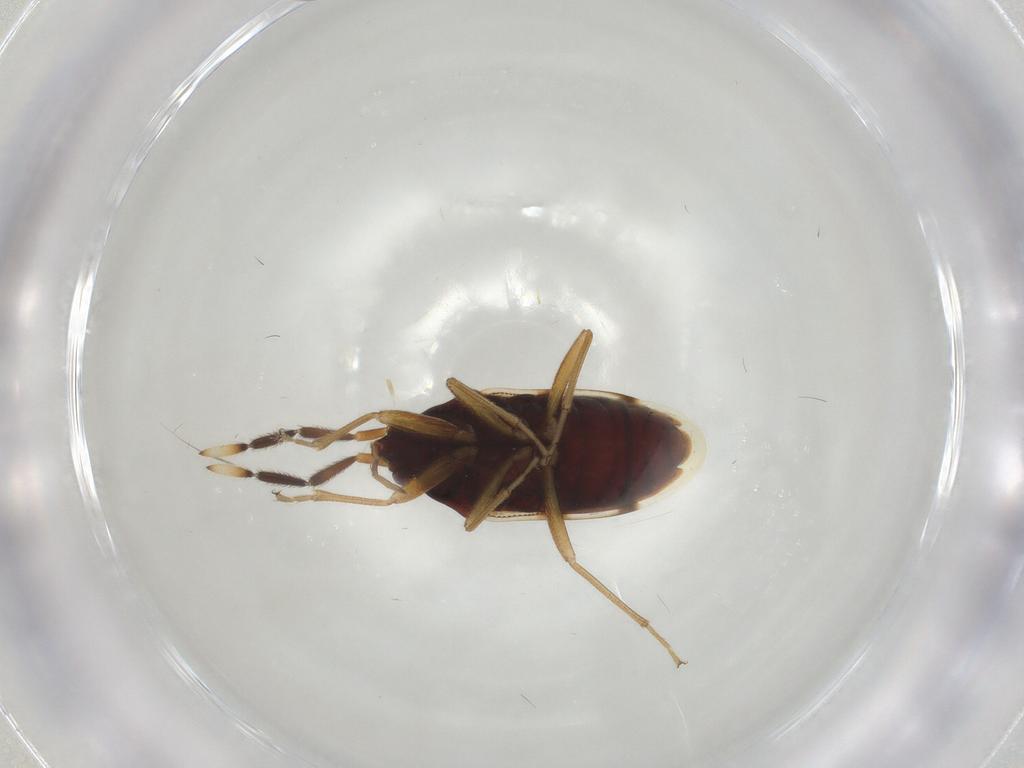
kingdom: Animalia
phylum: Arthropoda
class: Insecta
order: Hemiptera
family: Rhyparochromidae
